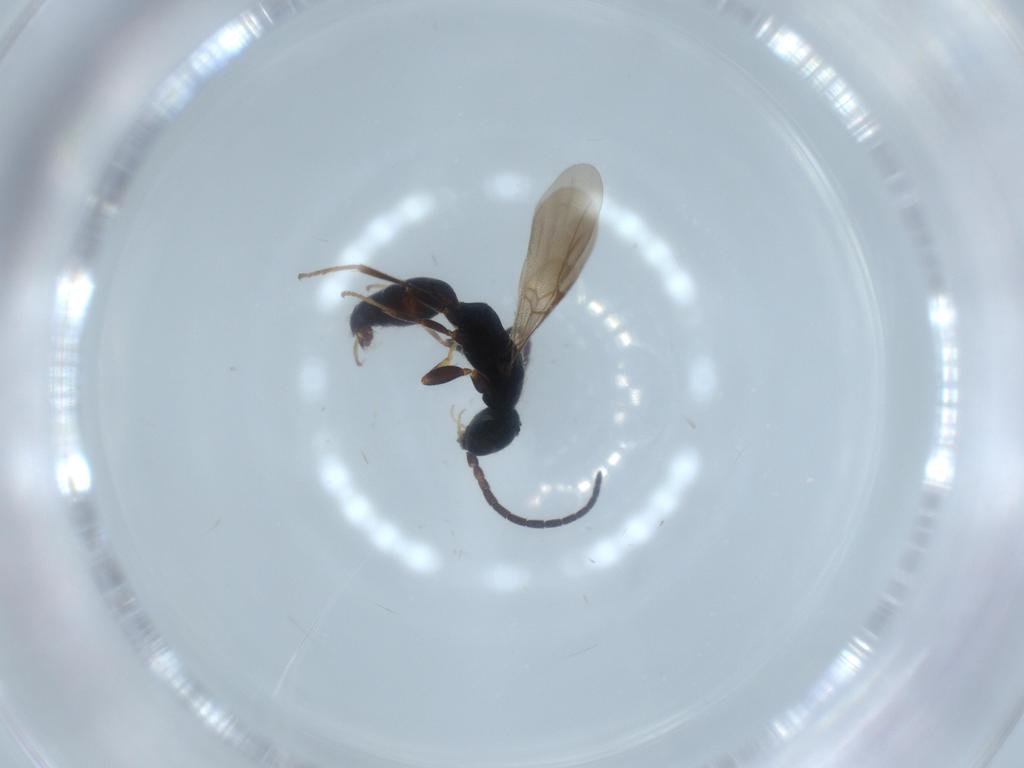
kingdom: Animalia
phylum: Arthropoda
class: Insecta
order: Hymenoptera
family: Bethylidae
